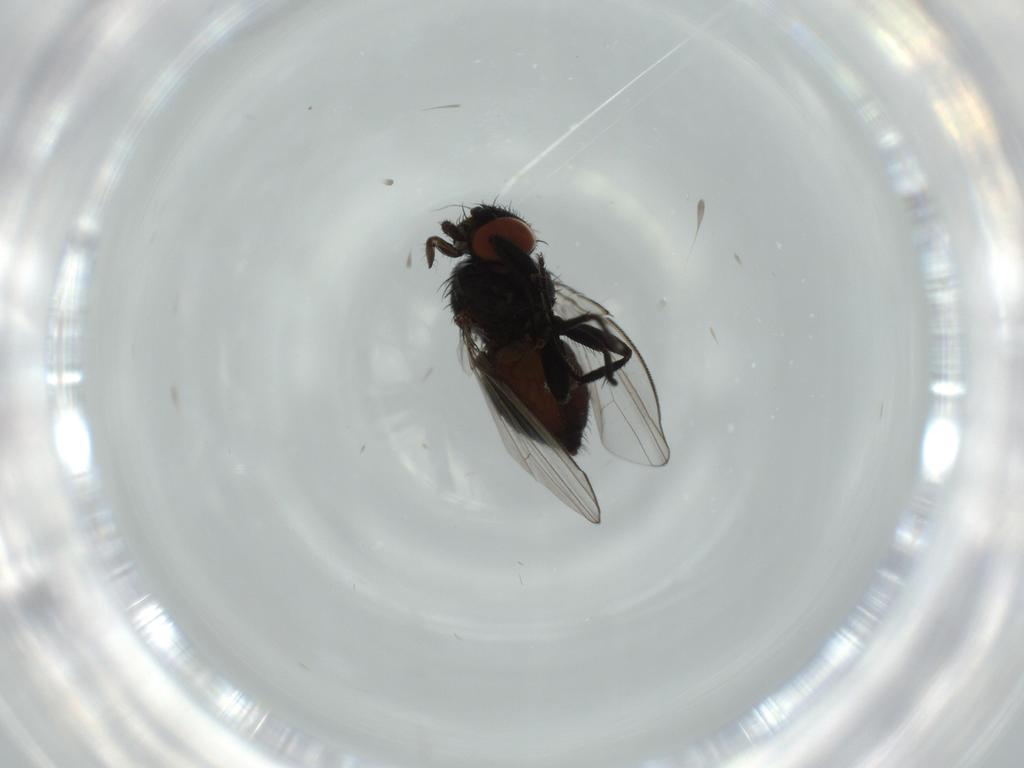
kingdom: Animalia
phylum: Arthropoda
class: Insecta
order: Diptera
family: Milichiidae
